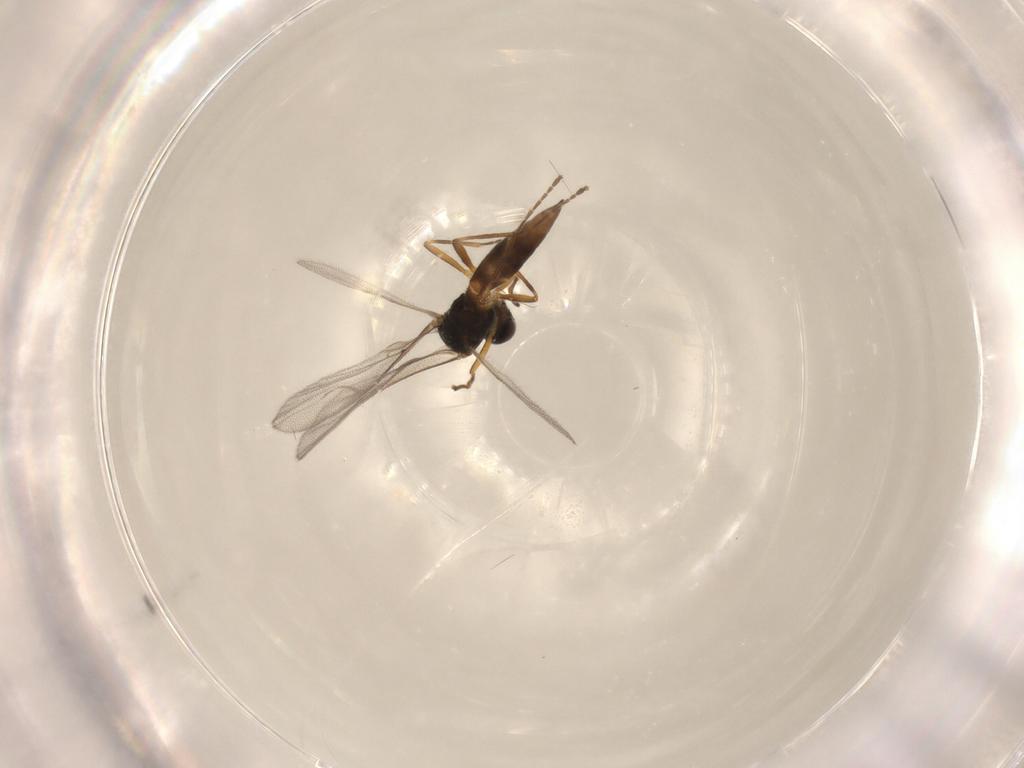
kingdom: Animalia
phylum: Arthropoda
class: Insecta
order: Hymenoptera
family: Braconidae
